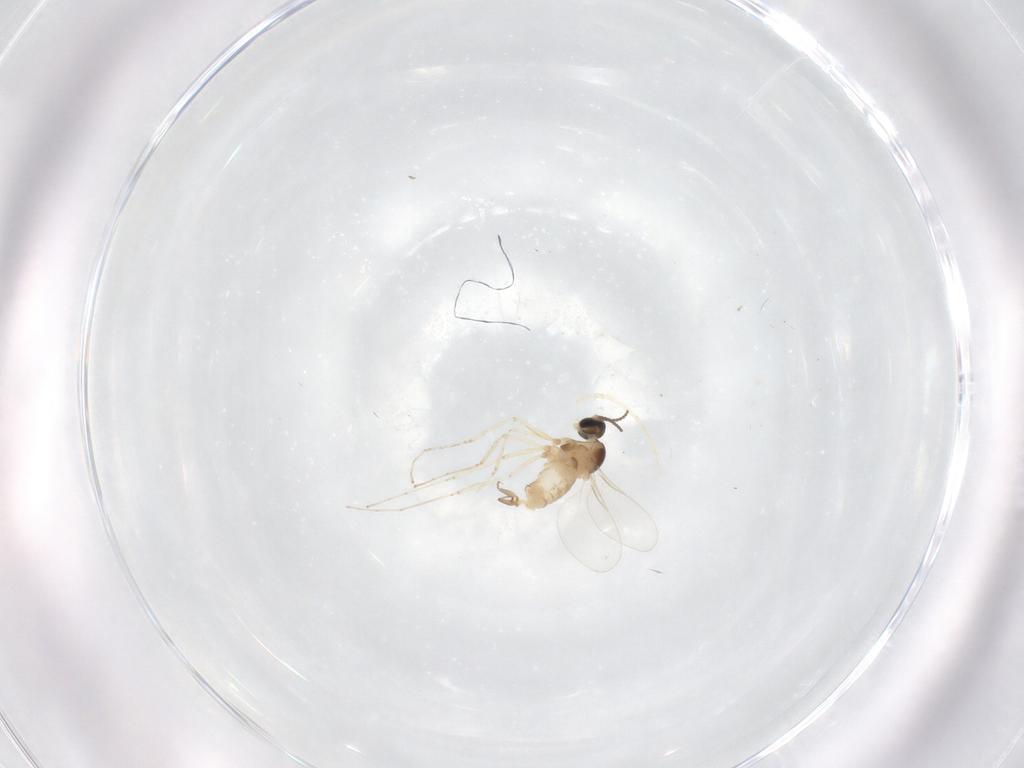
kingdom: Animalia
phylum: Arthropoda
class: Insecta
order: Diptera
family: Cecidomyiidae
